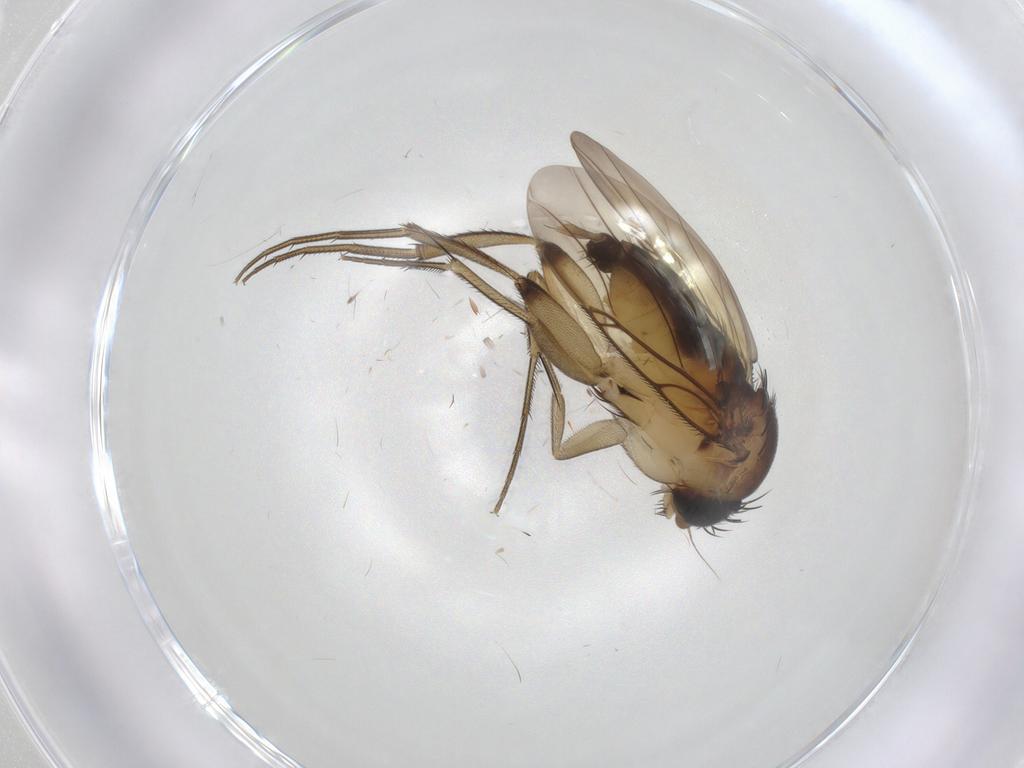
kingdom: Animalia
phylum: Arthropoda
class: Insecta
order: Diptera
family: Phoridae
